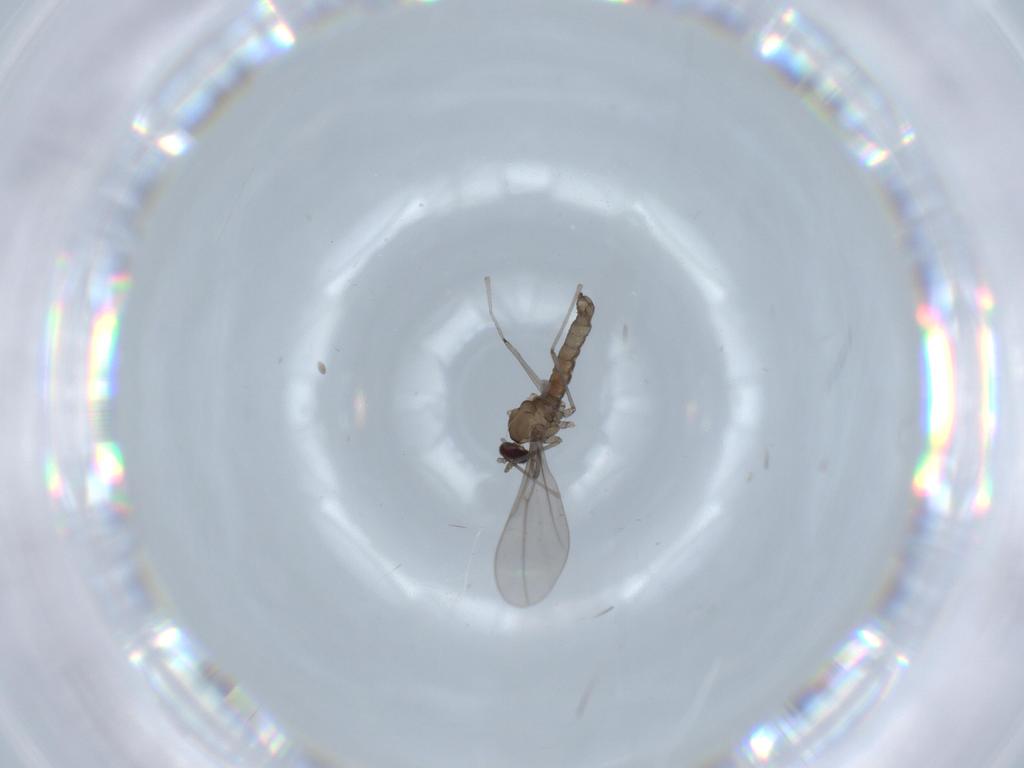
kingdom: Animalia
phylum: Arthropoda
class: Insecta
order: Diptera
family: Cecidomyiidae
